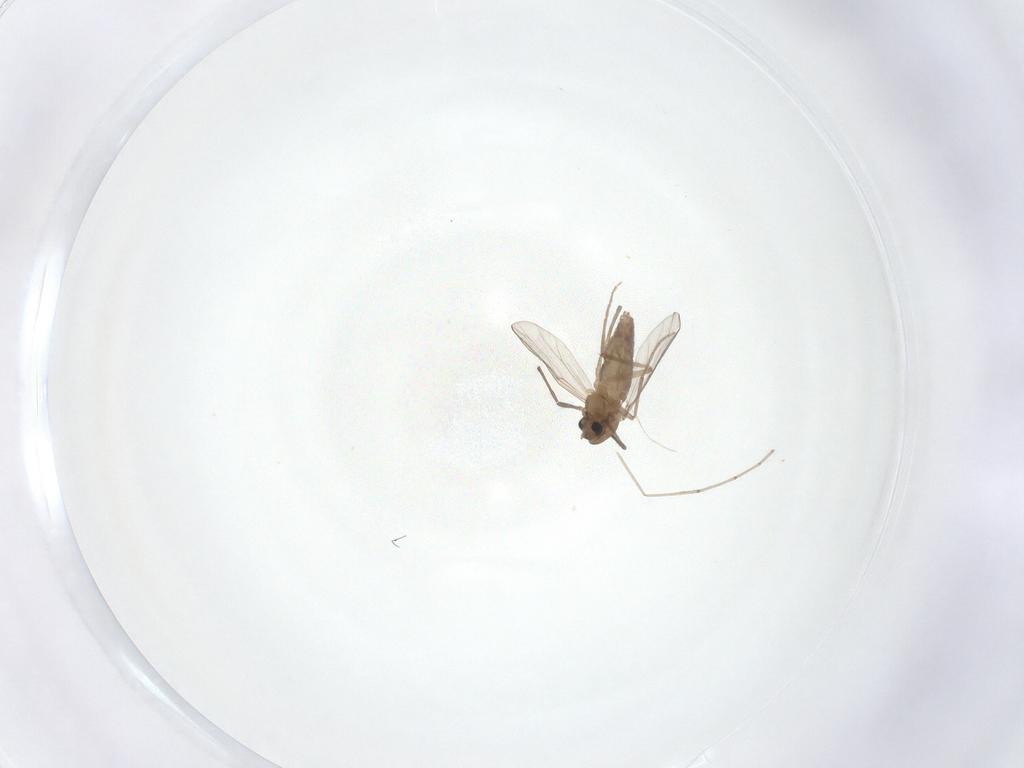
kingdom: Animalia
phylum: Arthropoda
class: Insecta
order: Diptera
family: Chironomidae
